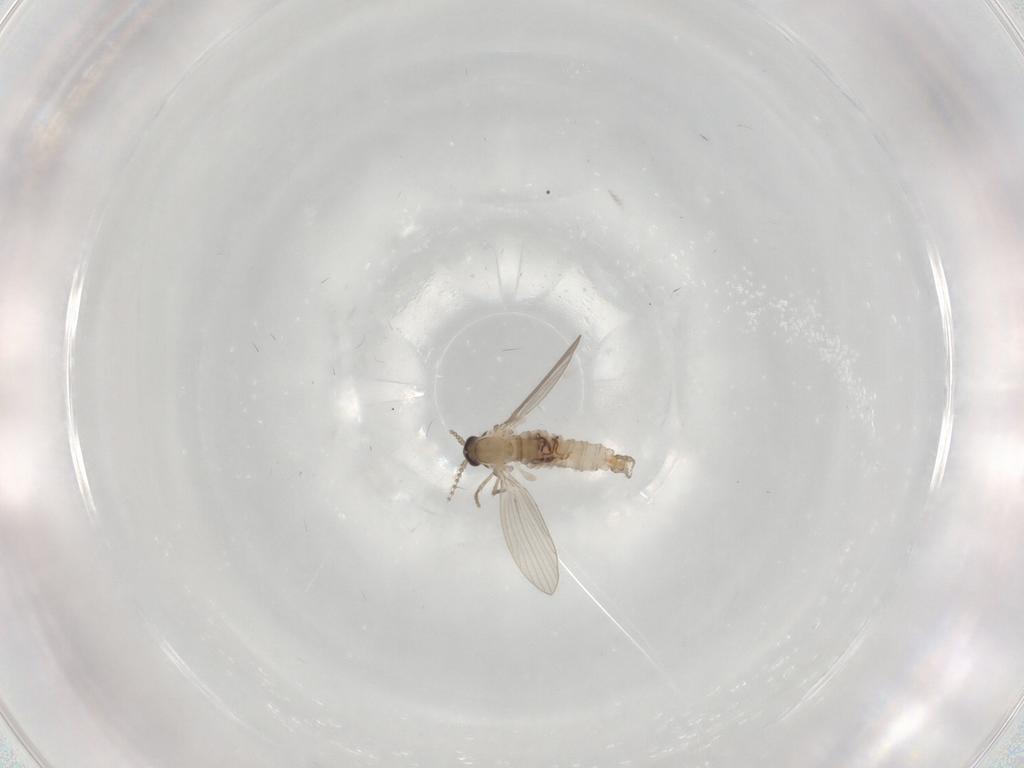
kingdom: Animalia
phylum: Arthropoda
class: Insecta
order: Diptera
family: Psychodidae
